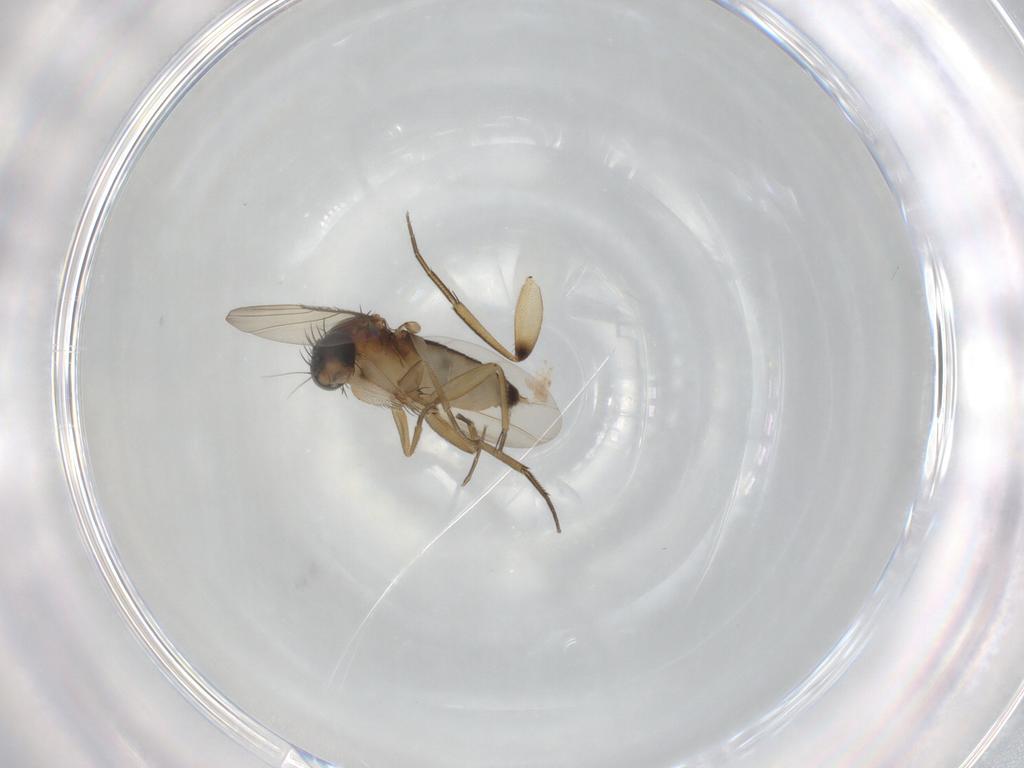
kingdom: Animalia
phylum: Arthropoda
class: Insecta
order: Diptera
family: Phoridae
